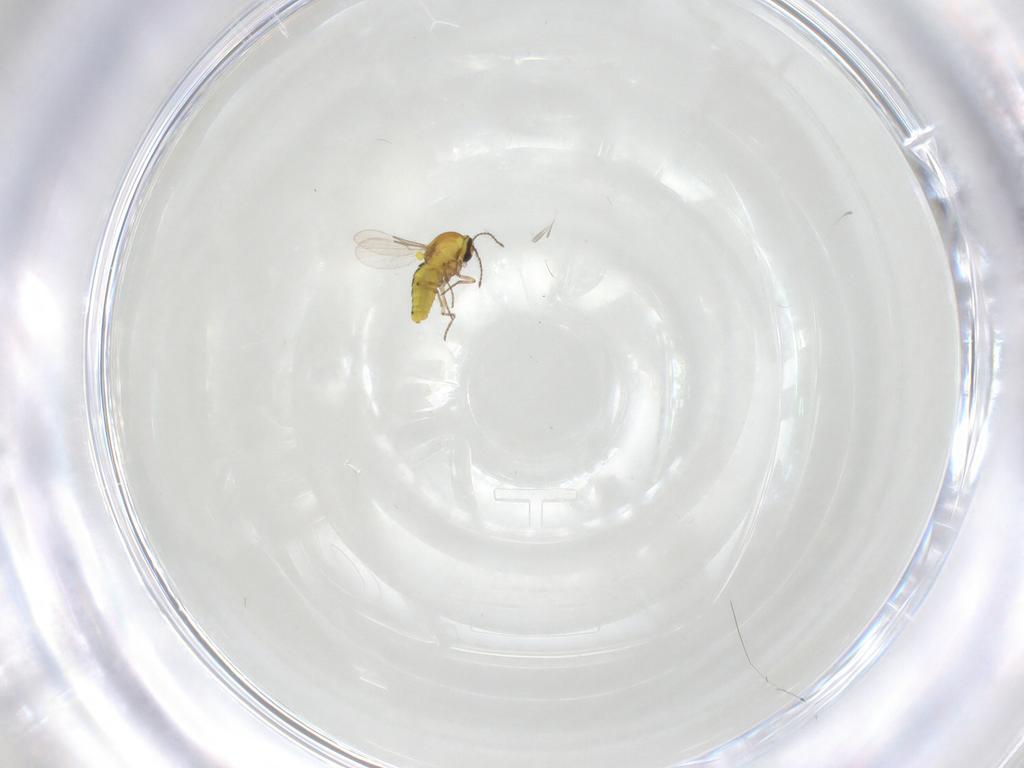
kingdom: Animalia
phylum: Arthropoda
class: Insecta
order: Diptera
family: Ceratopogonidae
